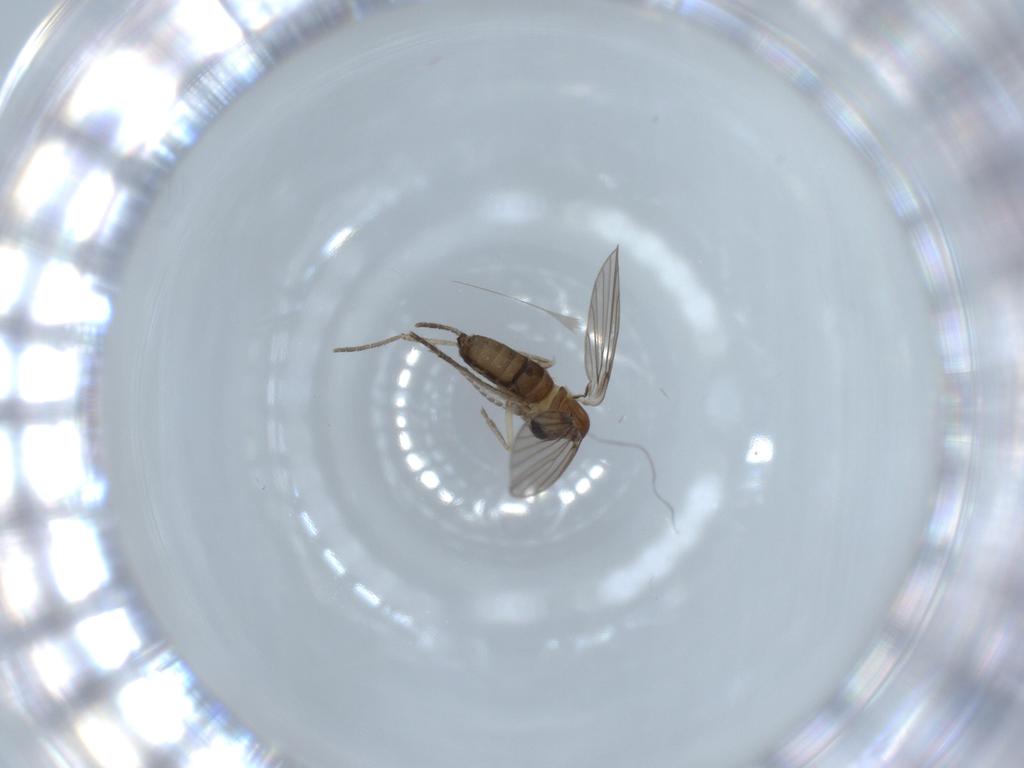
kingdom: Animalia
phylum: Arthropoda
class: Insecta
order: Diptera
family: Psychodidae
